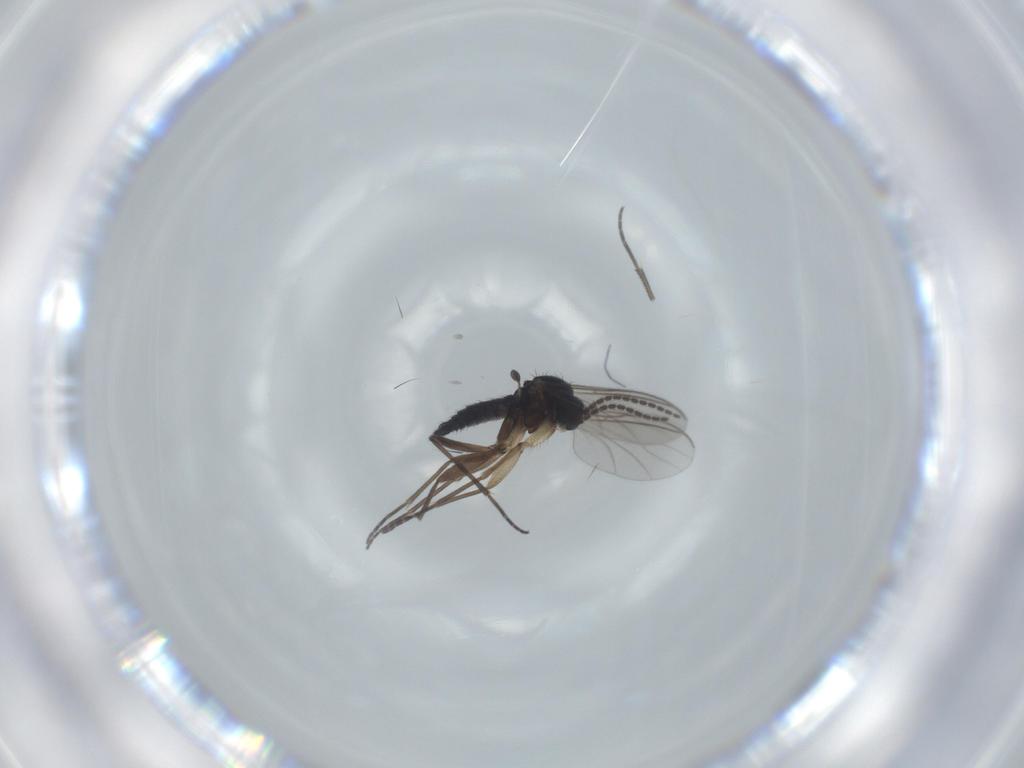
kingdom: Animalia
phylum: Arthropoda
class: Insecta
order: Diptera
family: Sciaridae
